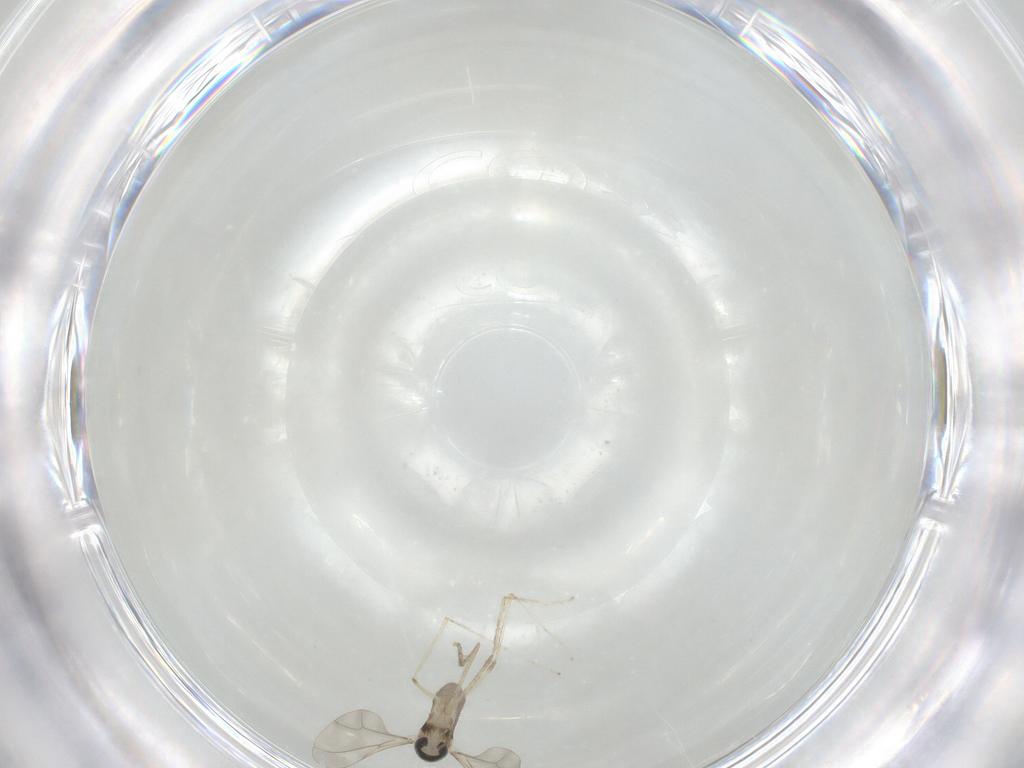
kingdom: Animalia
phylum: Arthropoda
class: Insecta
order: Diptera
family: Cecidomyiidae
